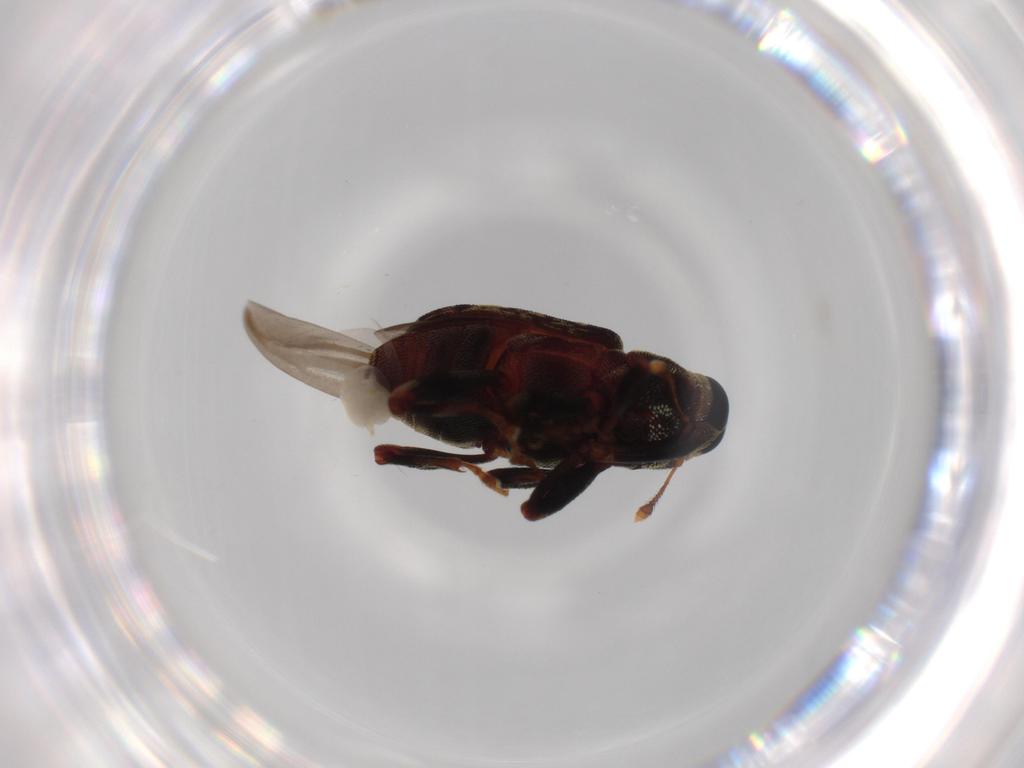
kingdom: Animalia
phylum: Arthropoda
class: Insecta
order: Coleoptera
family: Curculionidae
